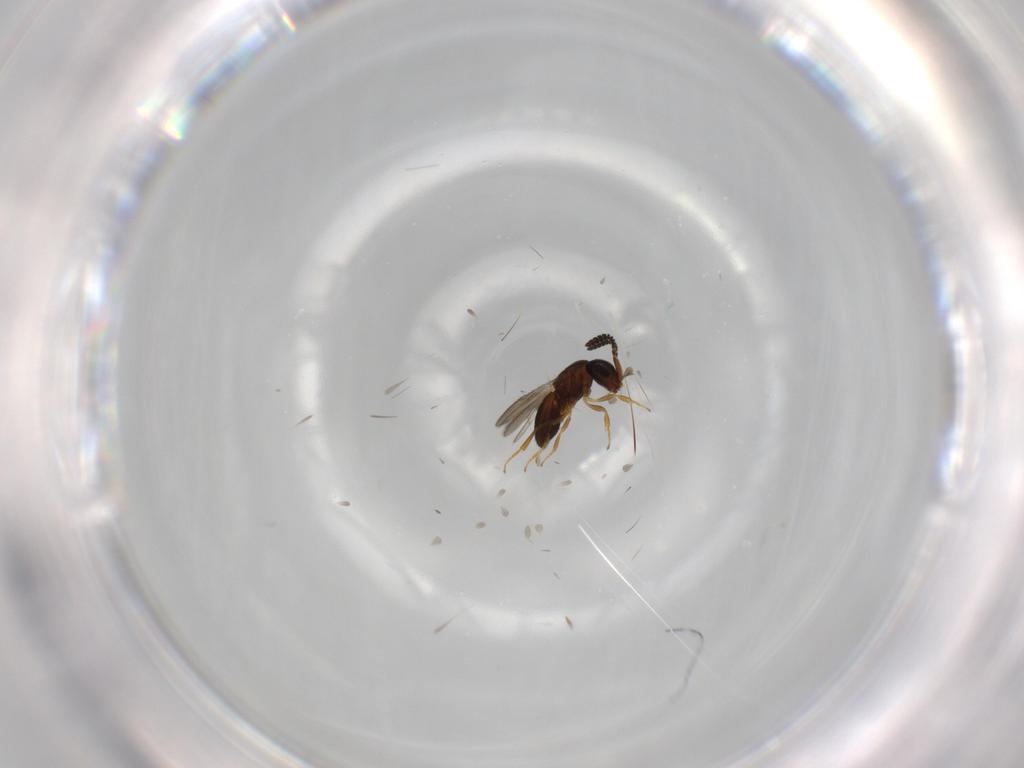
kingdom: Animalia
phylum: Arthropoda
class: Insecta
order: Hymenoptera
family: Scelionidae
